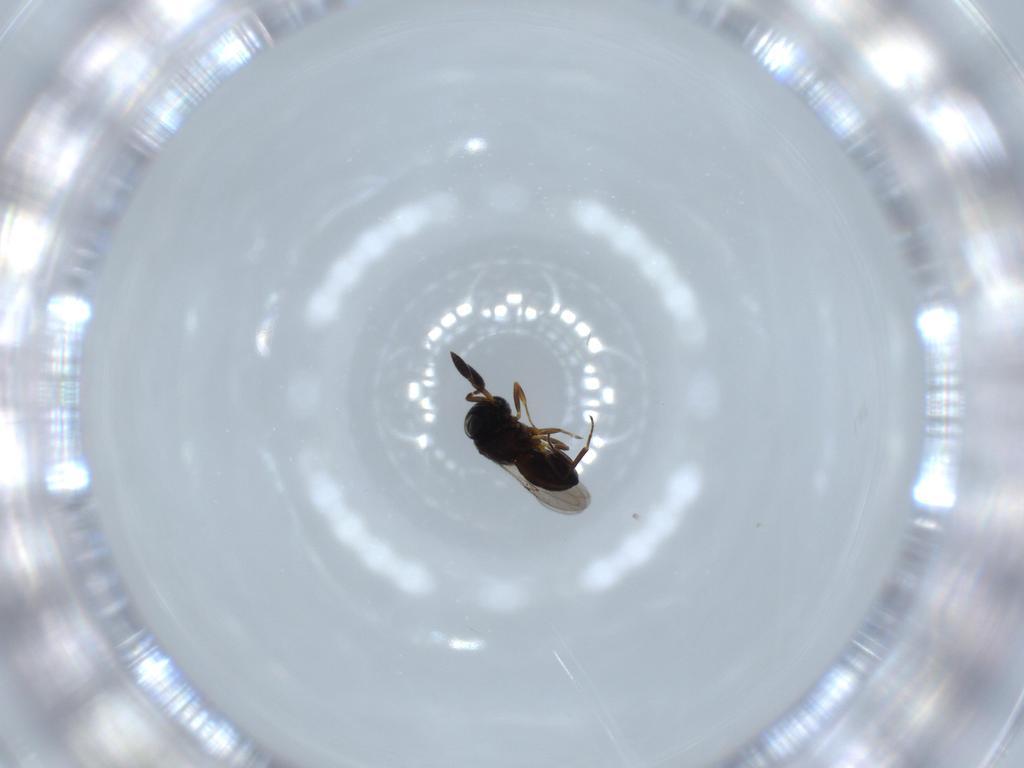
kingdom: Animalia
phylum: Arthropoda
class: Insecta
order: Hymenoptera
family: Scelionidae
